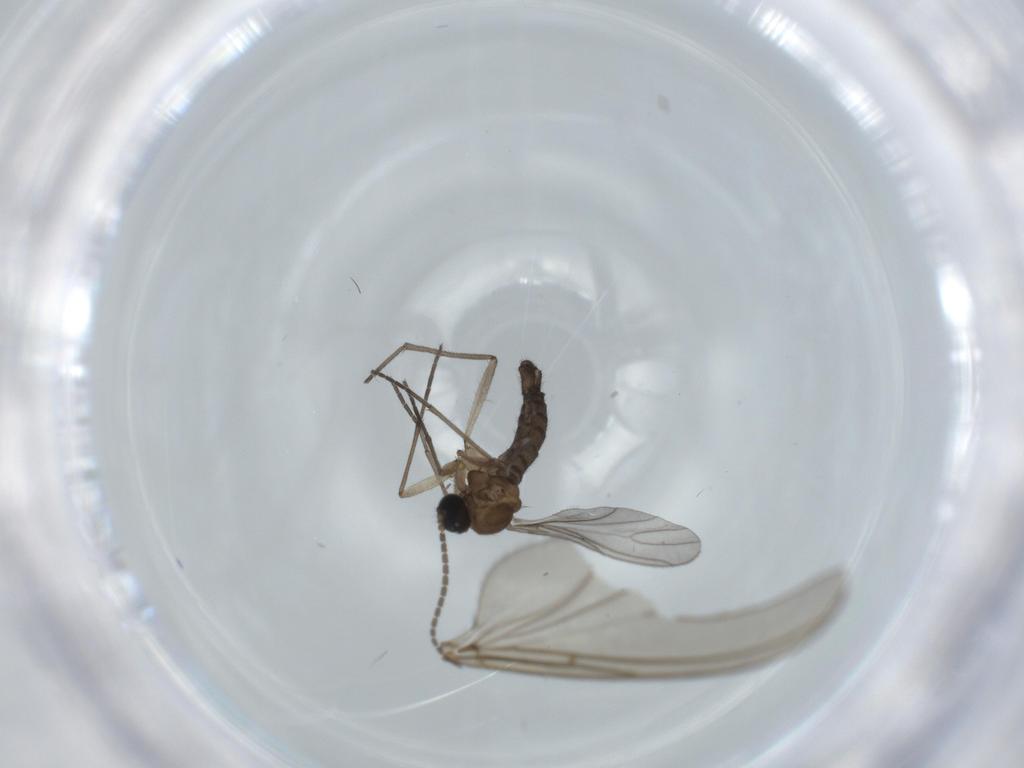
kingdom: Animalia
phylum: Arthropoda
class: Insecta
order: Diptera
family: Sciaridae
